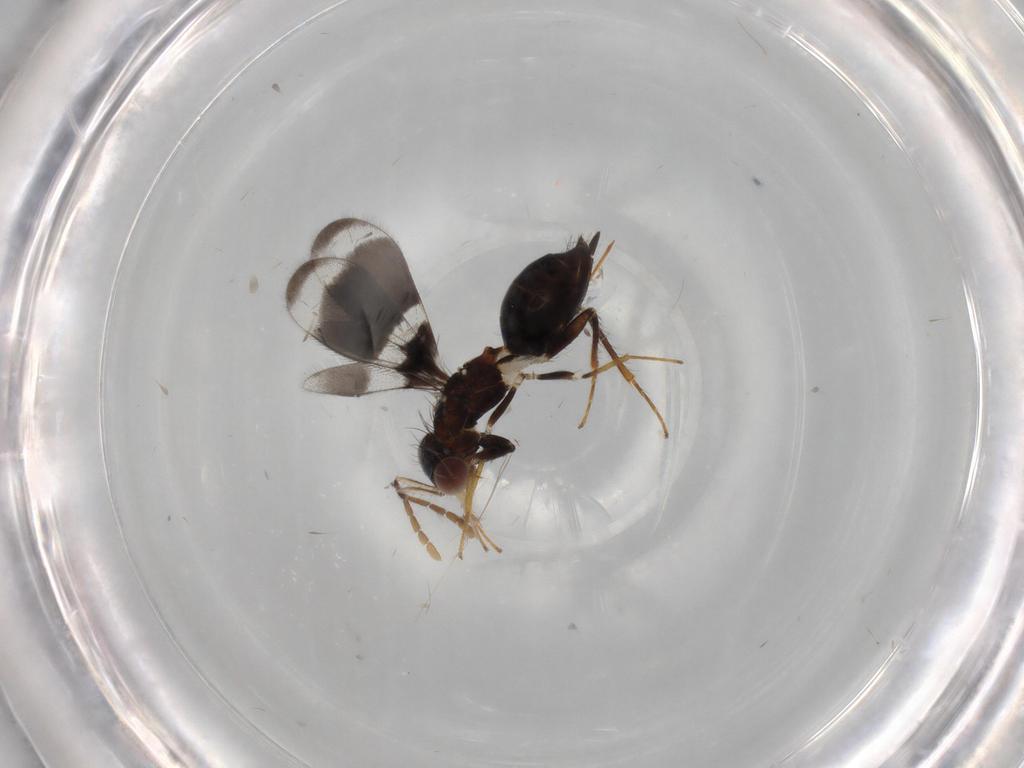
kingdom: Animalia
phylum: Arthropoda
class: Insecta
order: Hymenoptera
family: Eulophidae
